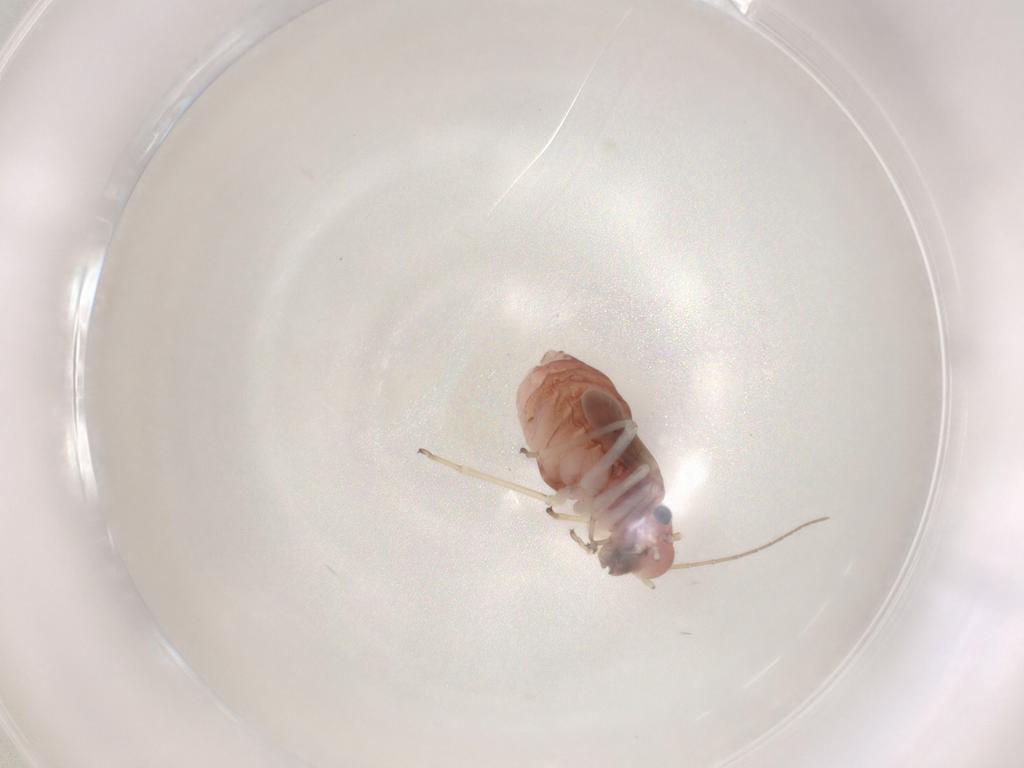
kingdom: Animalia
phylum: Arthropoda
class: Insecta
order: Psocodea
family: Caeciliusidae
